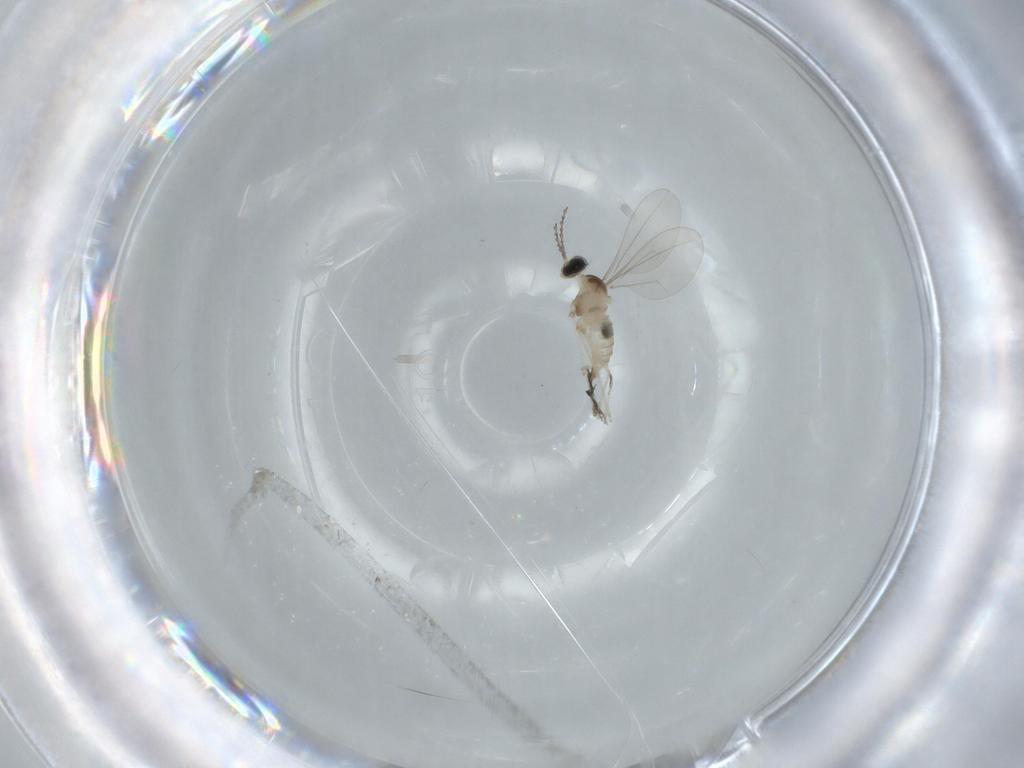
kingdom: Animalia
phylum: Arthropoda
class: Insecta
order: Diptera
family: Cecidomyiidae
